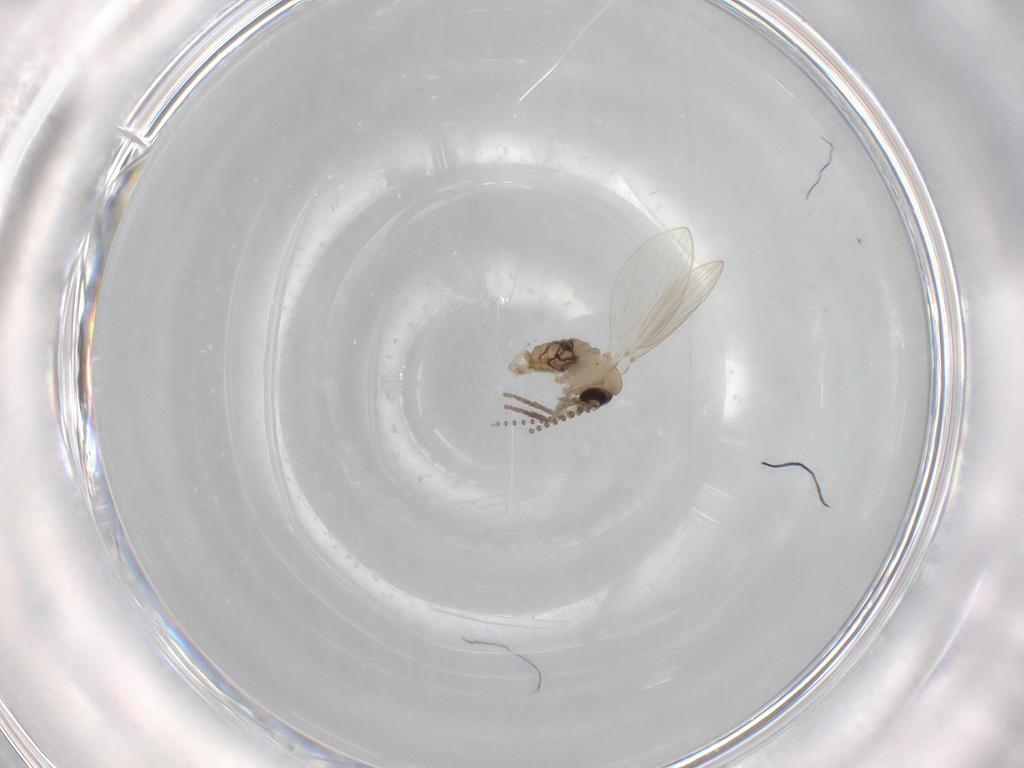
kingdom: Animalia
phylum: Arthropoda
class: Insecta
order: Diptera
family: Psychodidae
